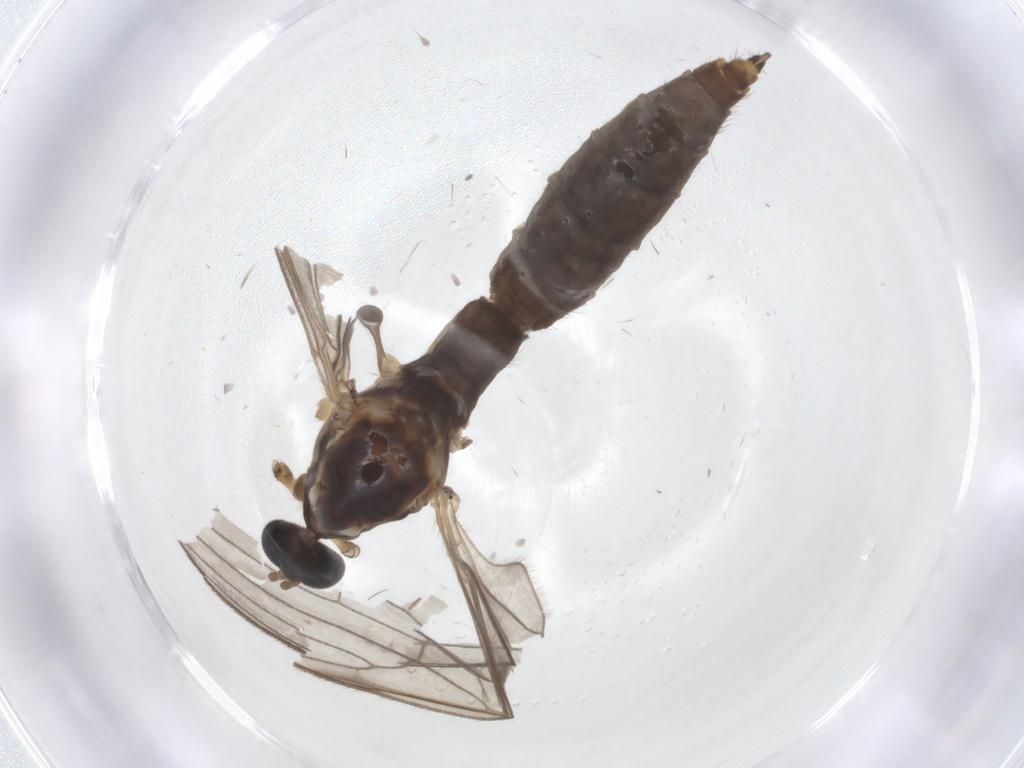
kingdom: Animalia
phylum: Arthropoda
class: Insecta
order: Diptera
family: Limoniidae
